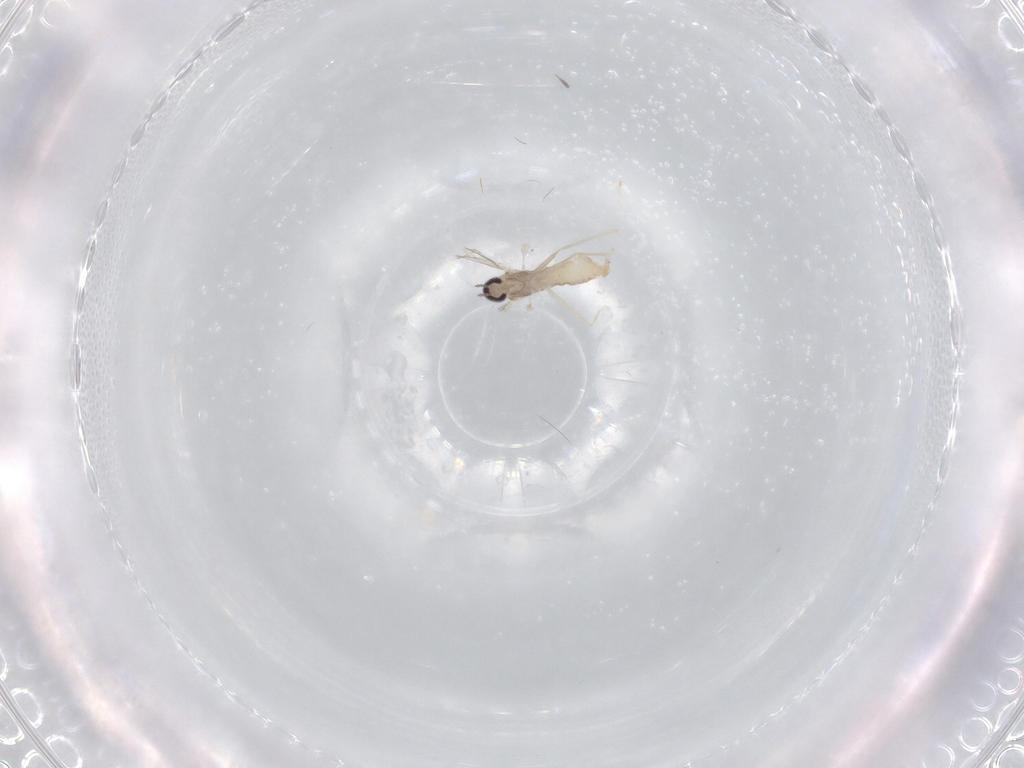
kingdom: Animalia
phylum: Arthropoda
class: Insecta
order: Diptera
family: Cecidomyiidae
